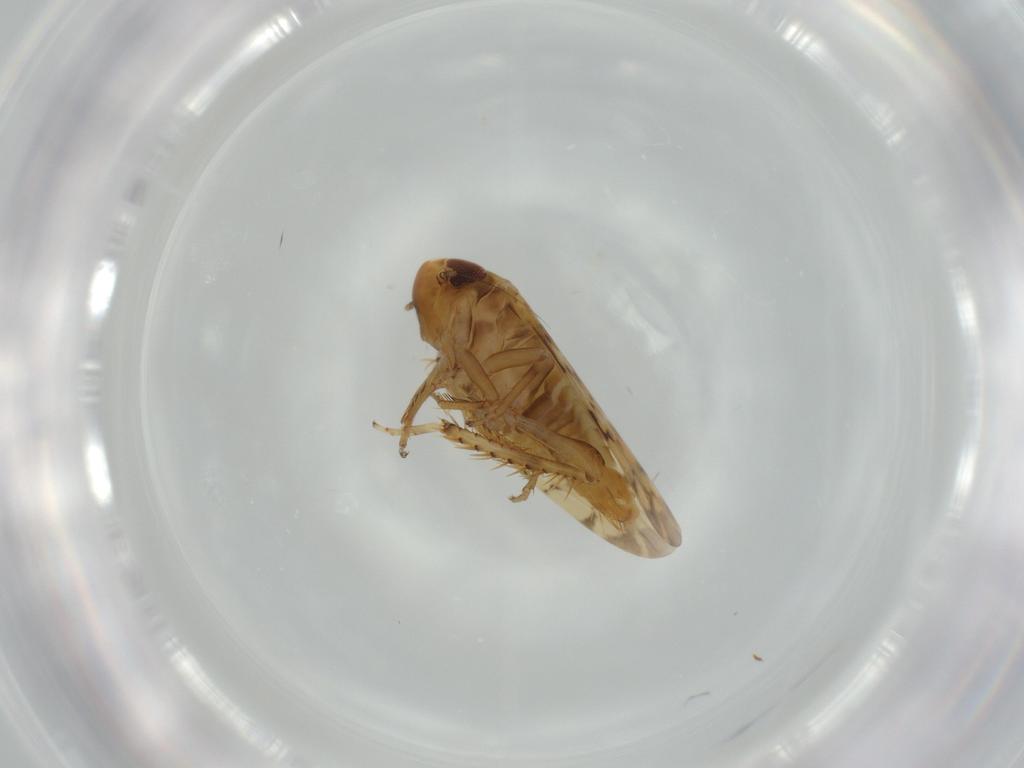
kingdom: Animalia
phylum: Arthropoda
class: Insecta
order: Hemiptera
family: Cicadellidae
